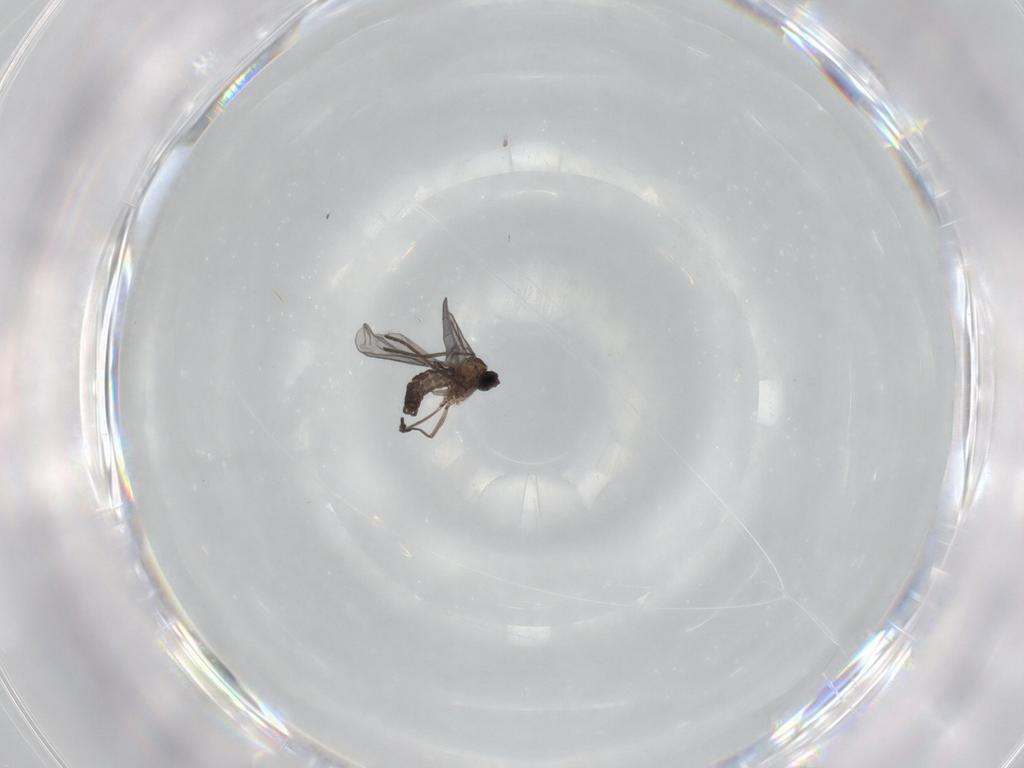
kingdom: Animalia
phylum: Arthropoda
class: Insecta
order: Diptera
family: Sciaridae
